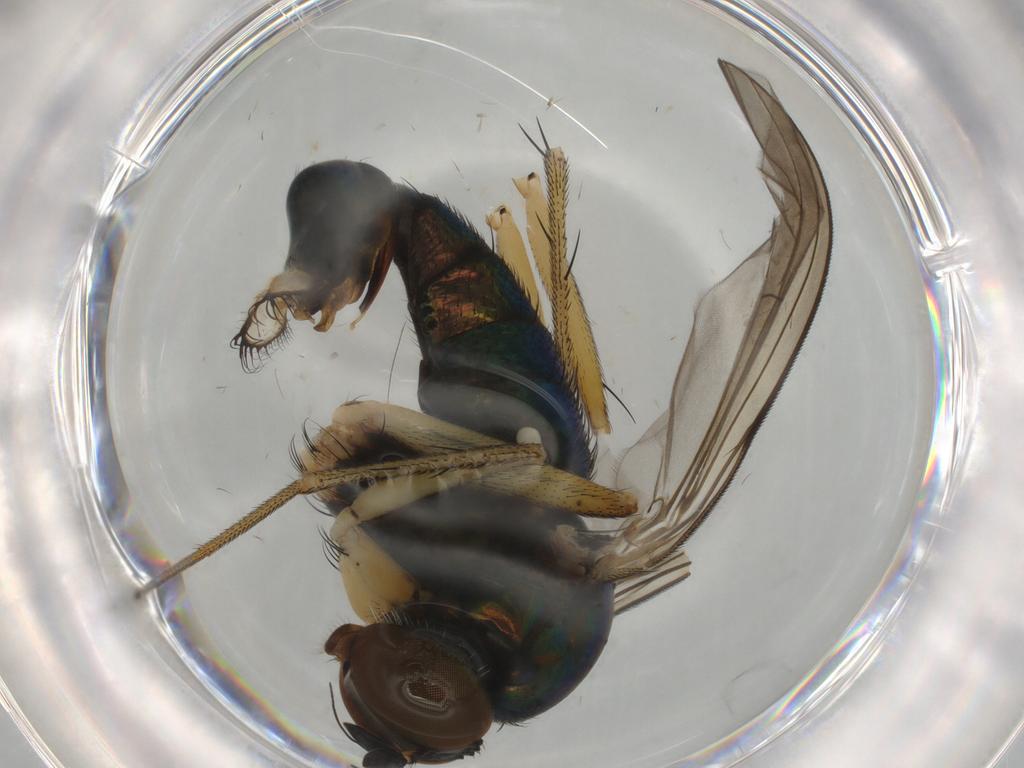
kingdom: Animalia
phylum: Arthropoda
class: Insecta
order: Diptera
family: Dolichopodidae
